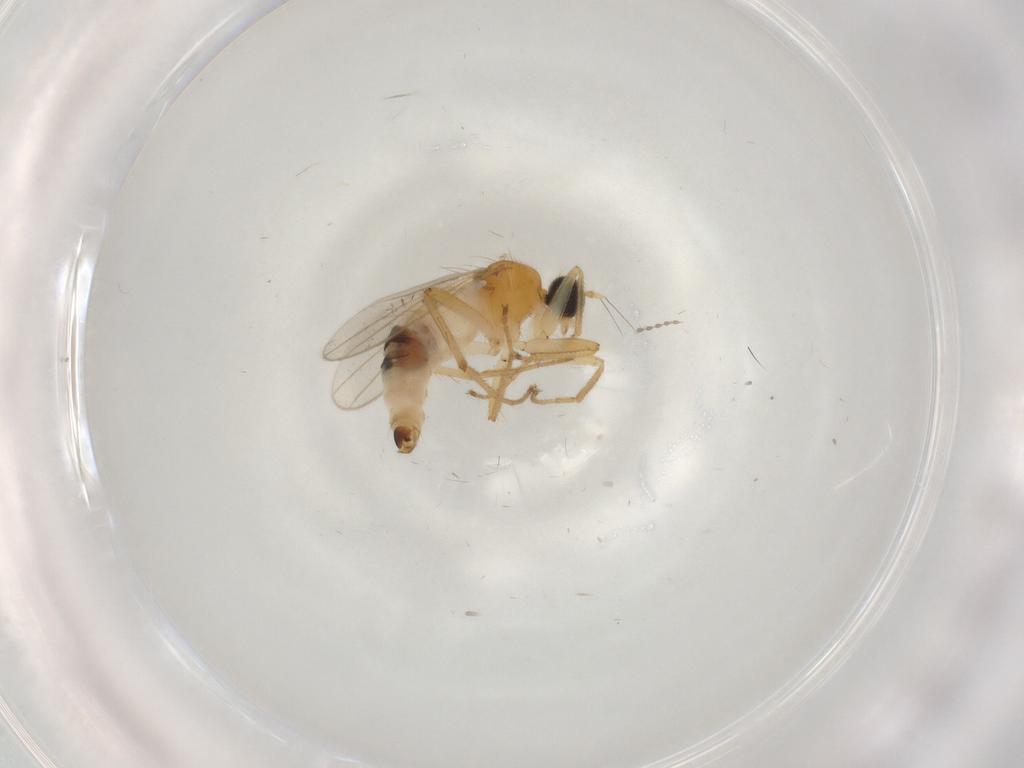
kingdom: Animalia
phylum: Arthropoda
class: Insecta
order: Diptera
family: Hybotidae
